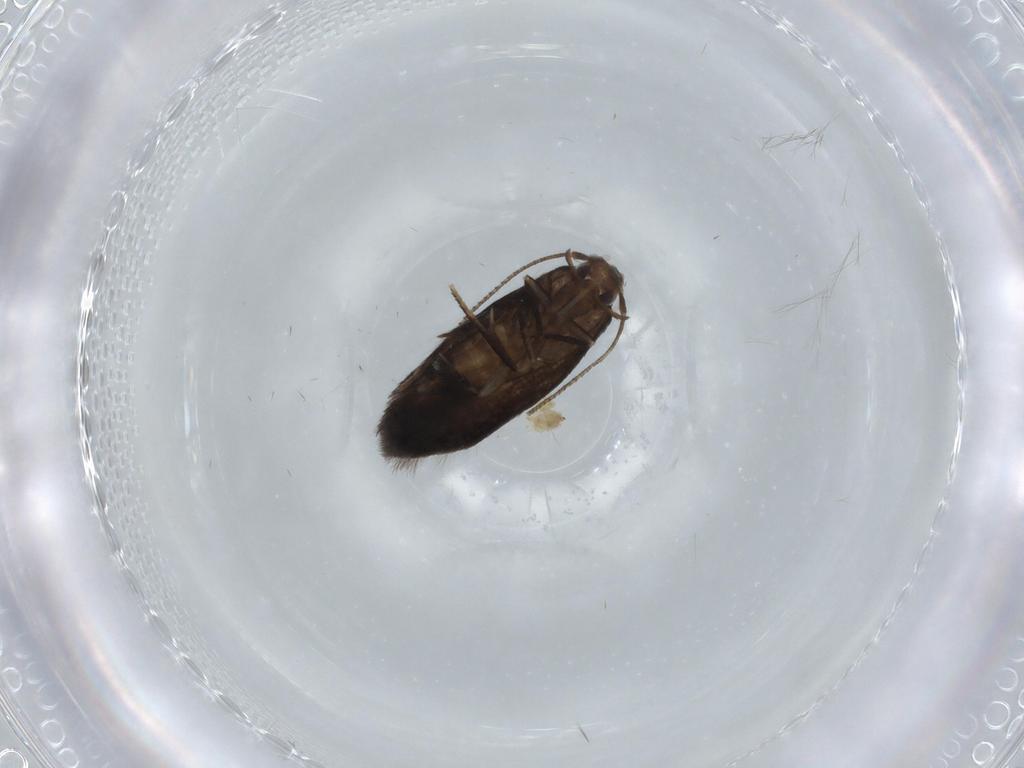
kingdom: Animalia
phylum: Arthropoda
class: Insecta
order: Lepidoptera
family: Coleophoridae
